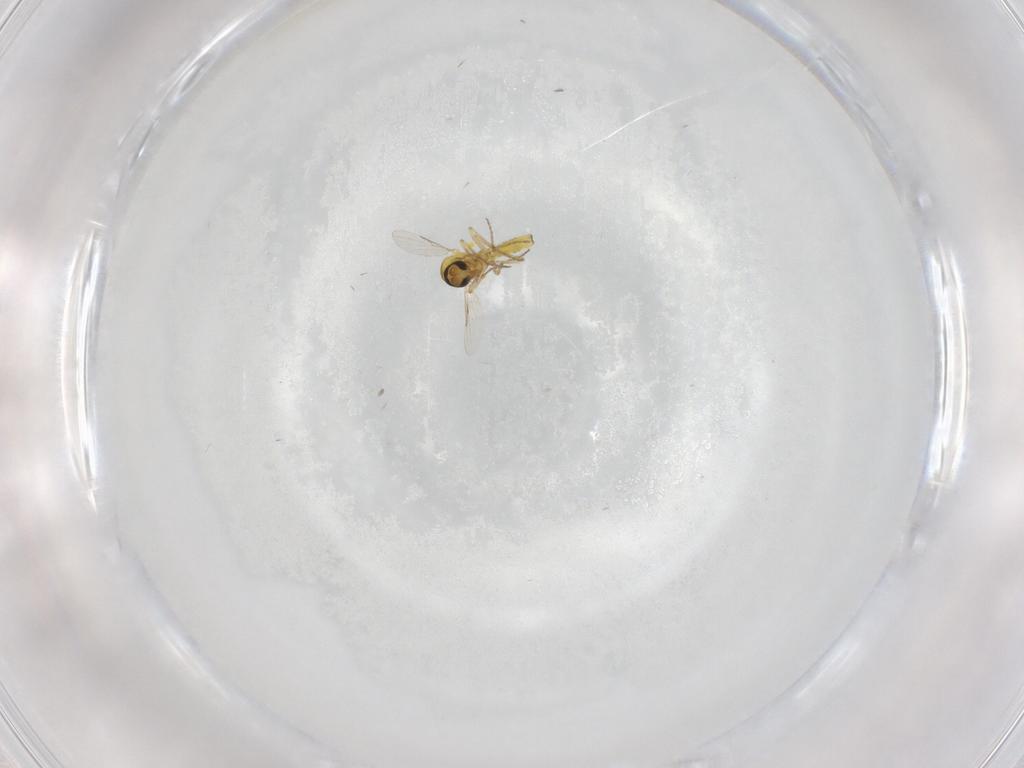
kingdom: Animalia
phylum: Arthropoda
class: Insecta
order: Diptera
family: Ceratopogonidae
